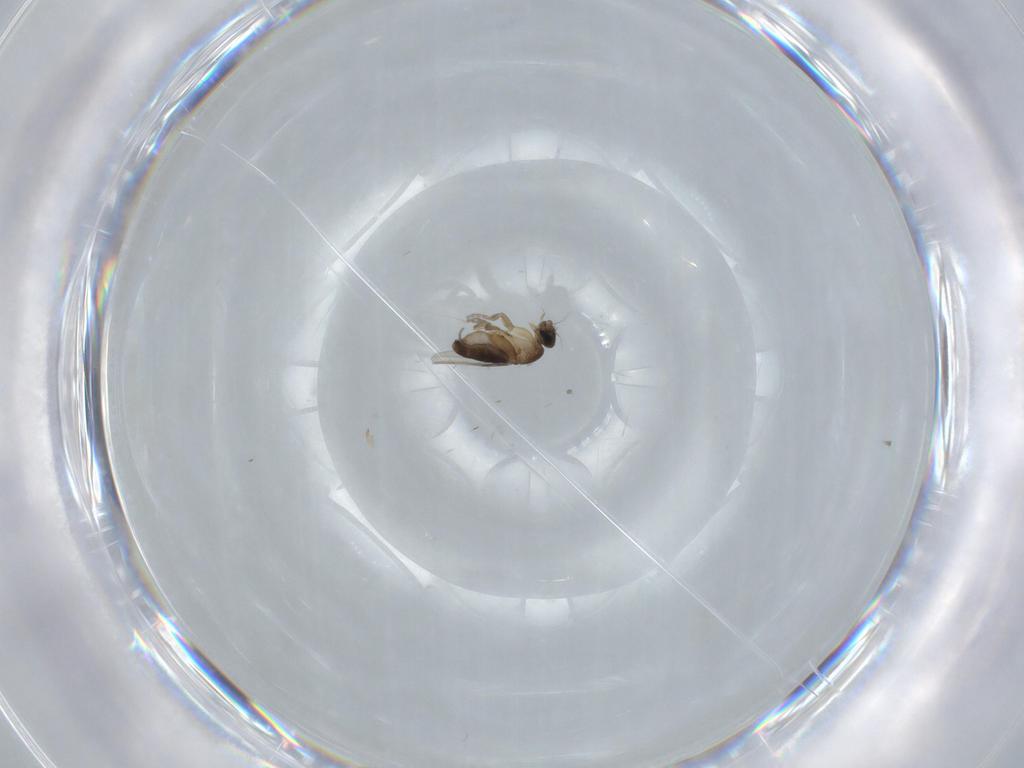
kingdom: Animalia
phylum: Arthropoda
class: Insecta
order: Diptera
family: Phoridae
